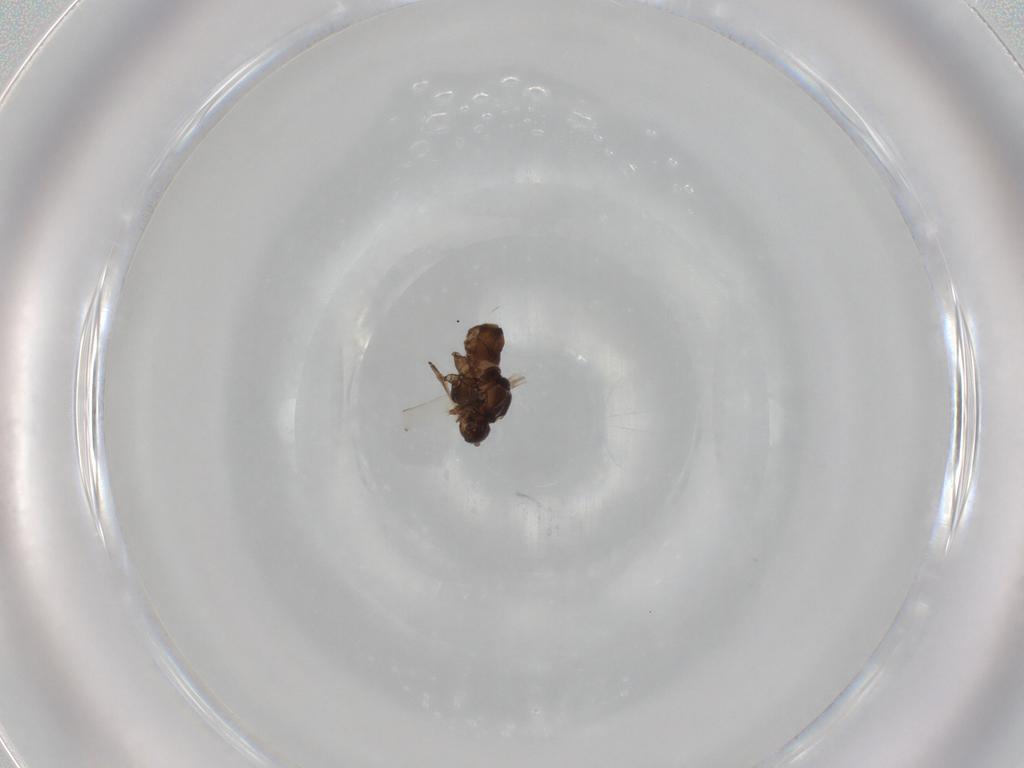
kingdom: Animalia
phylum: Arthropoda
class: Insecta
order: Hemiptera
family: Aphididae
